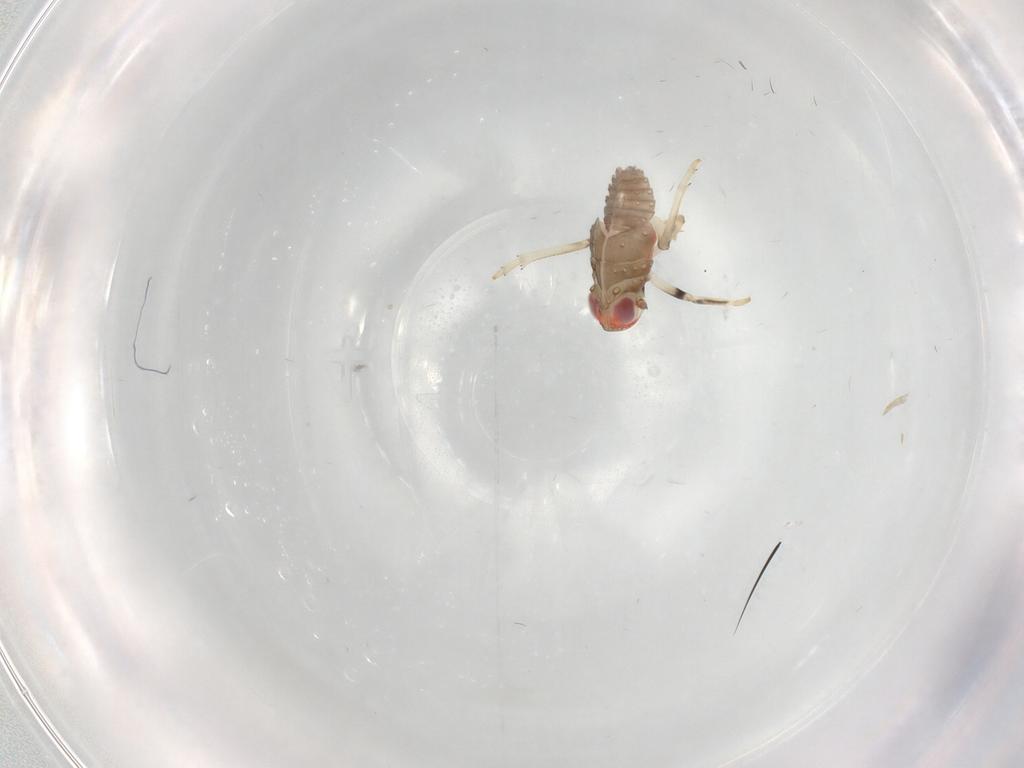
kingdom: Animalia
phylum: Arthropoda
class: Insecta
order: Hemiptera
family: Issidae
